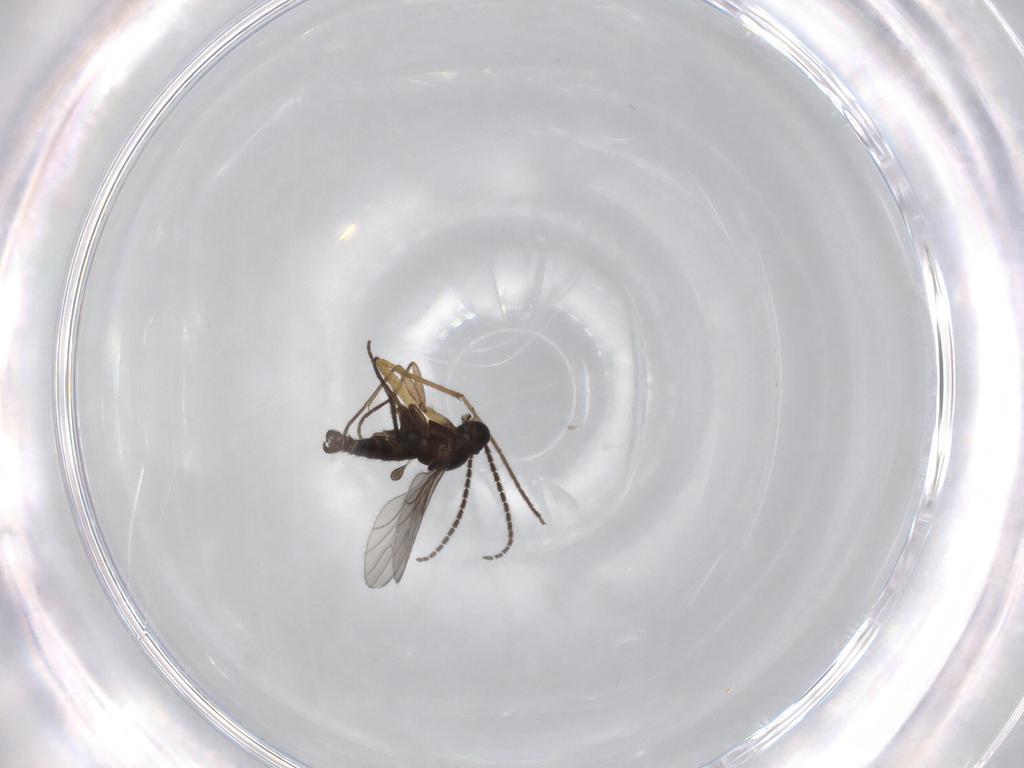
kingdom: Animalia
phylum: Arthropoda
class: Insecta
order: Diptera
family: Sciaridae
